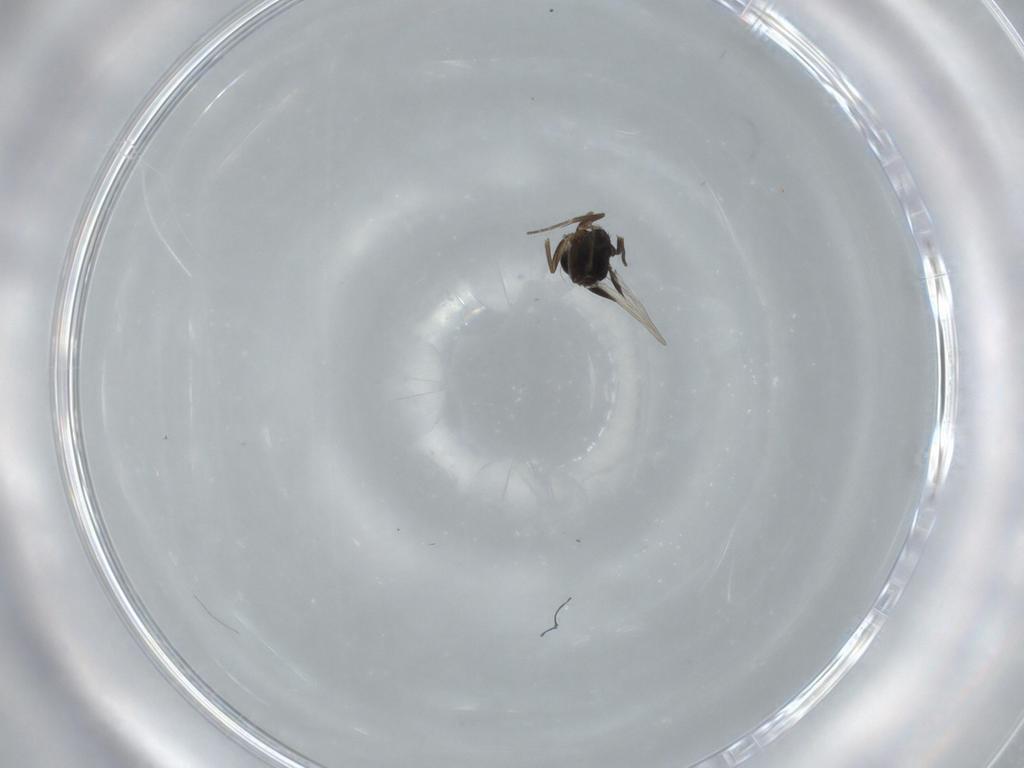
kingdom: Animalia
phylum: Arthropoda
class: Insecta
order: Diptera
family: Phoridae
